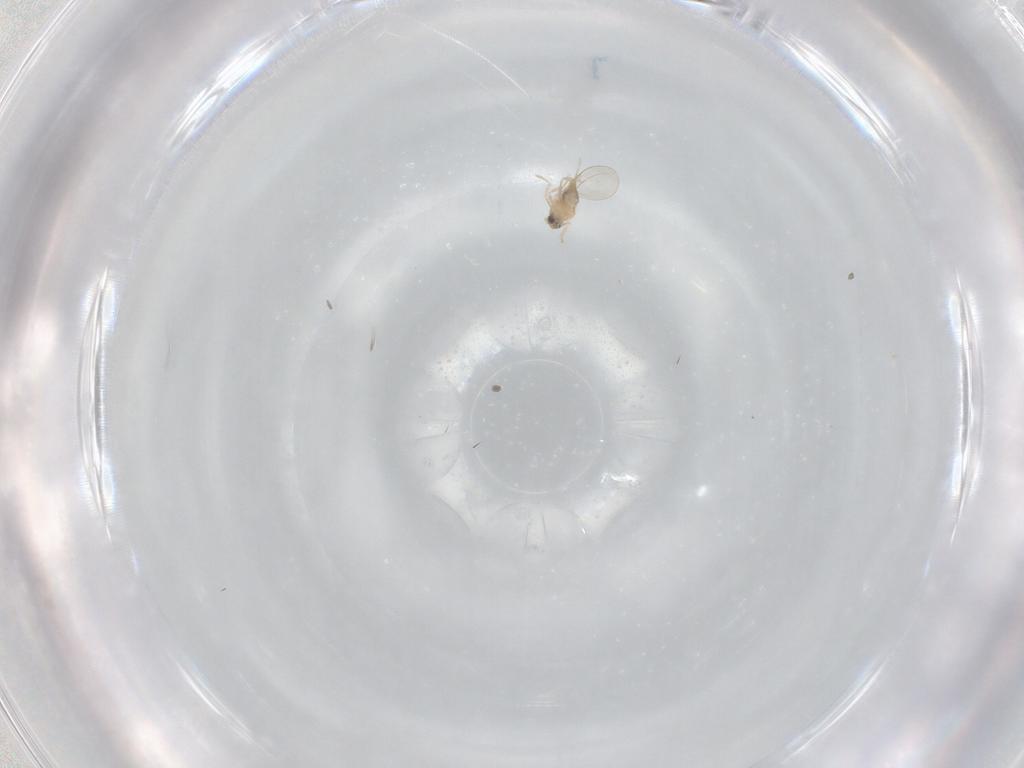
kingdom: Animalia
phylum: Arthropoda
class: Insecta
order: Diptera
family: Cecidomyiidae
